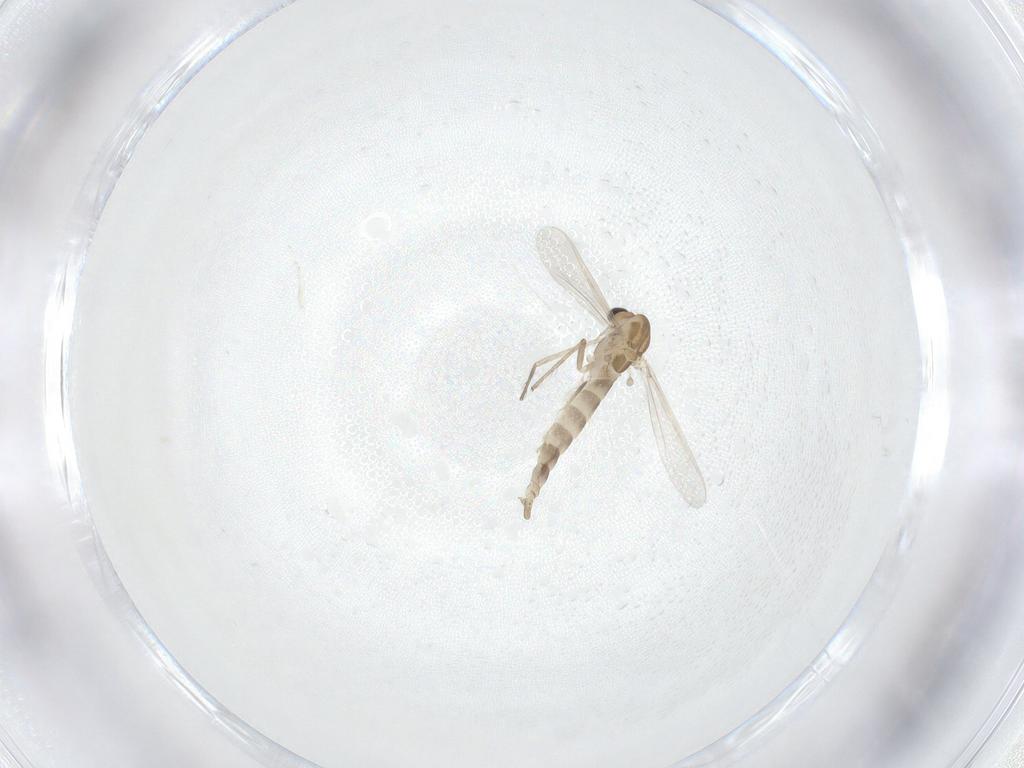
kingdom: Animalia
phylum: Arthropoda
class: Insecta
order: Diptera
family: Chironomidae
